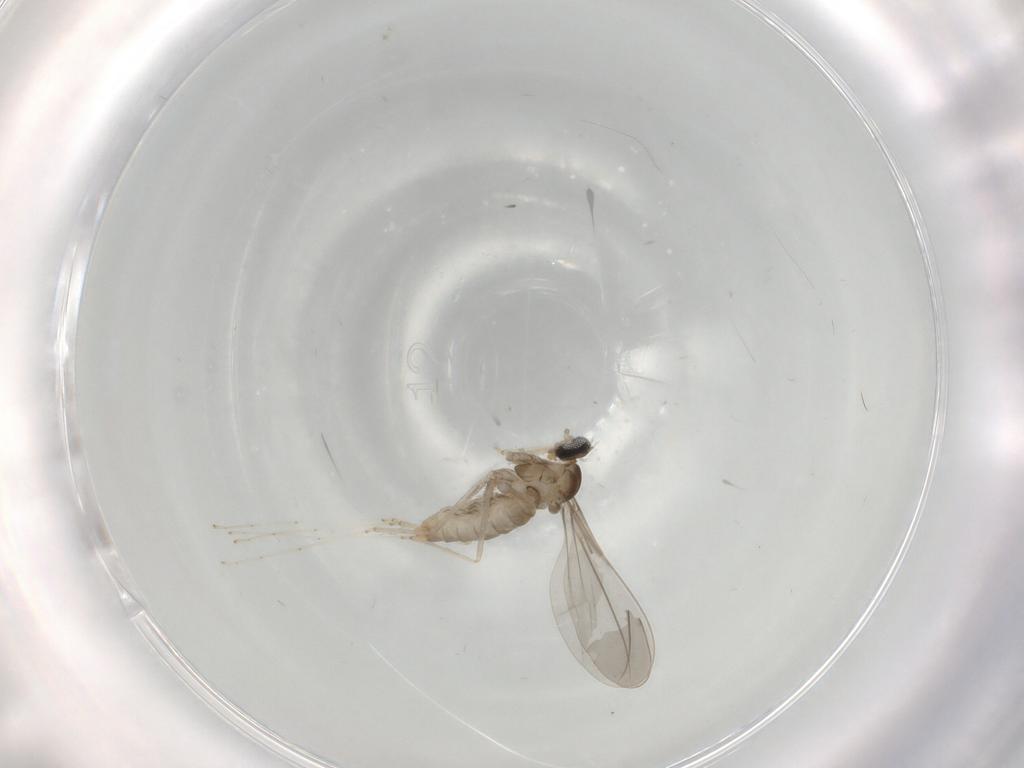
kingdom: Animalia
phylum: Arthropoda
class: Insecta
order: Diptera
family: Cecidomyiidae
